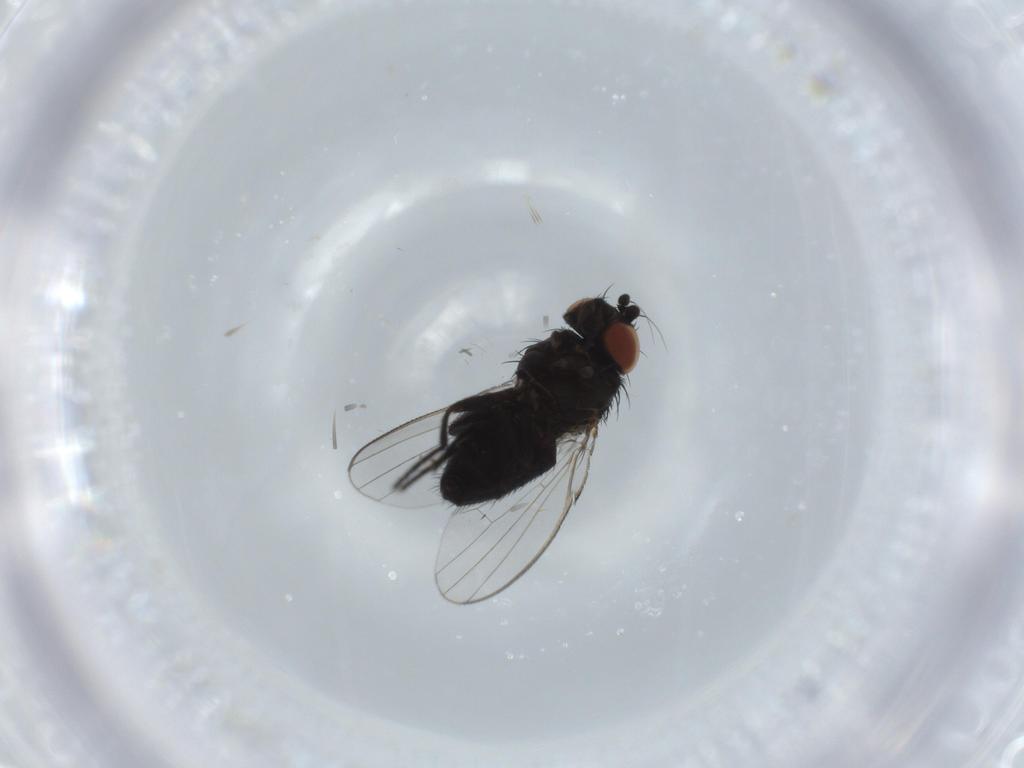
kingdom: Animalia
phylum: Arthropoda
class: Insecta
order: Diptera
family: Milichiidae
